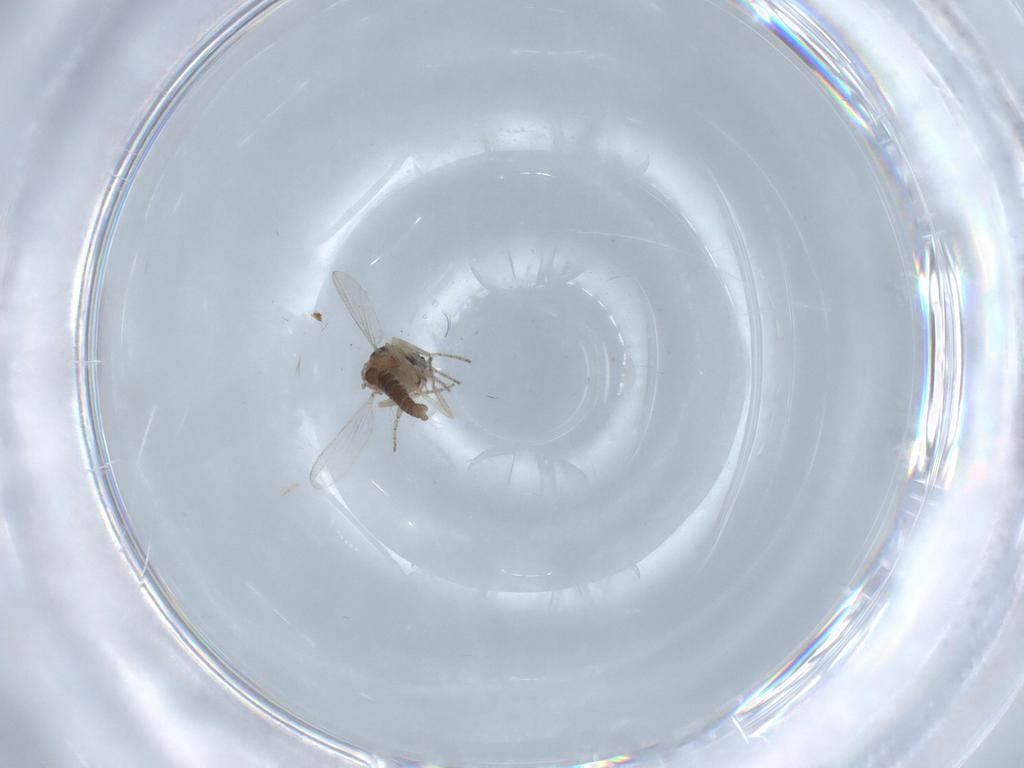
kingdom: Animalia
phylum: Arthropoda
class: Insecta
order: Diptera
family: Ceratopogonidae
